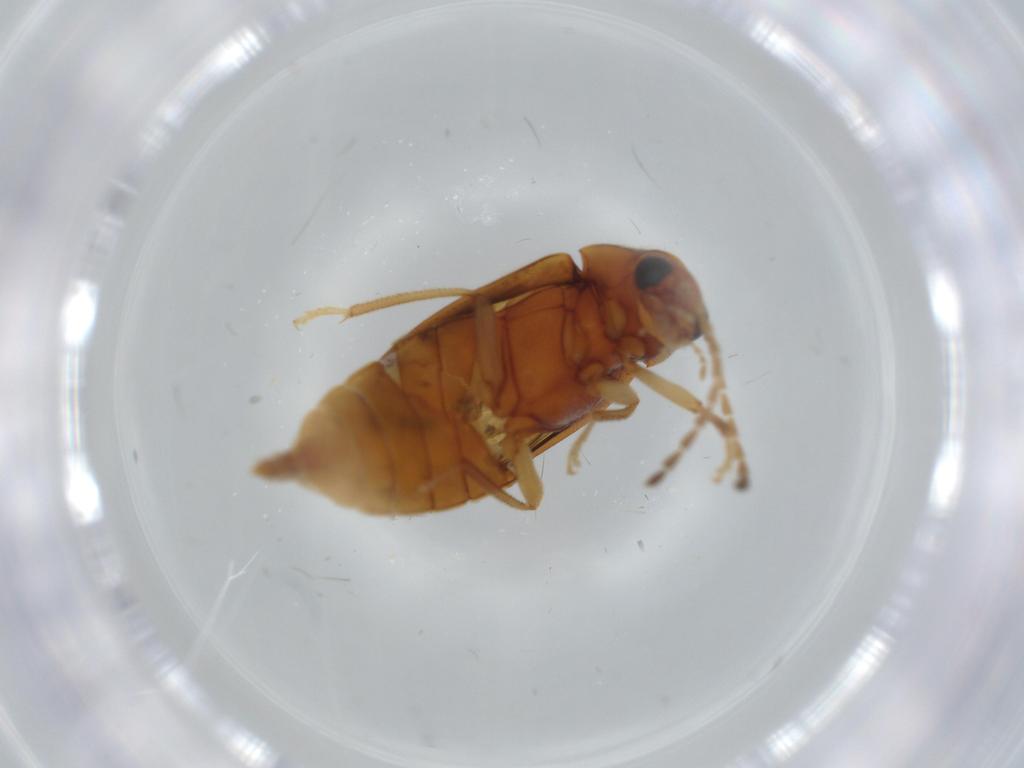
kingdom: Animalia
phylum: Arthropoda
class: Insecta
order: Coleoptera
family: Ptilodactylidae
